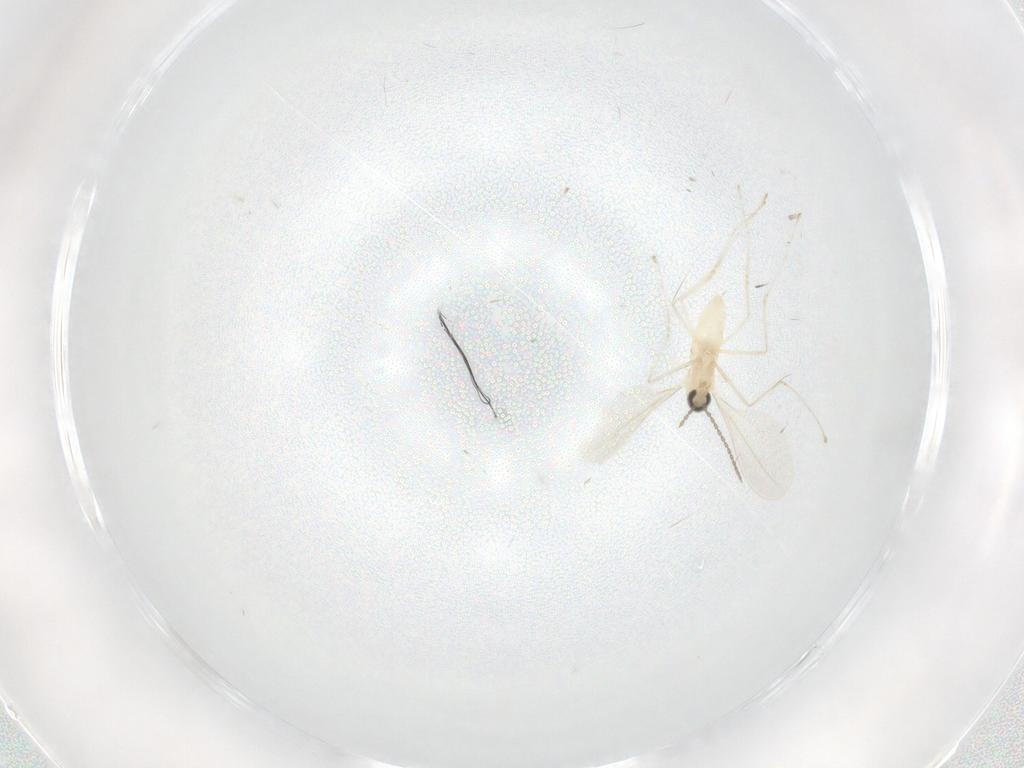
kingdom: Animalia
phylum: Arthropoda
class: Insecta
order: Diptera
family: Cecidomyiidae
